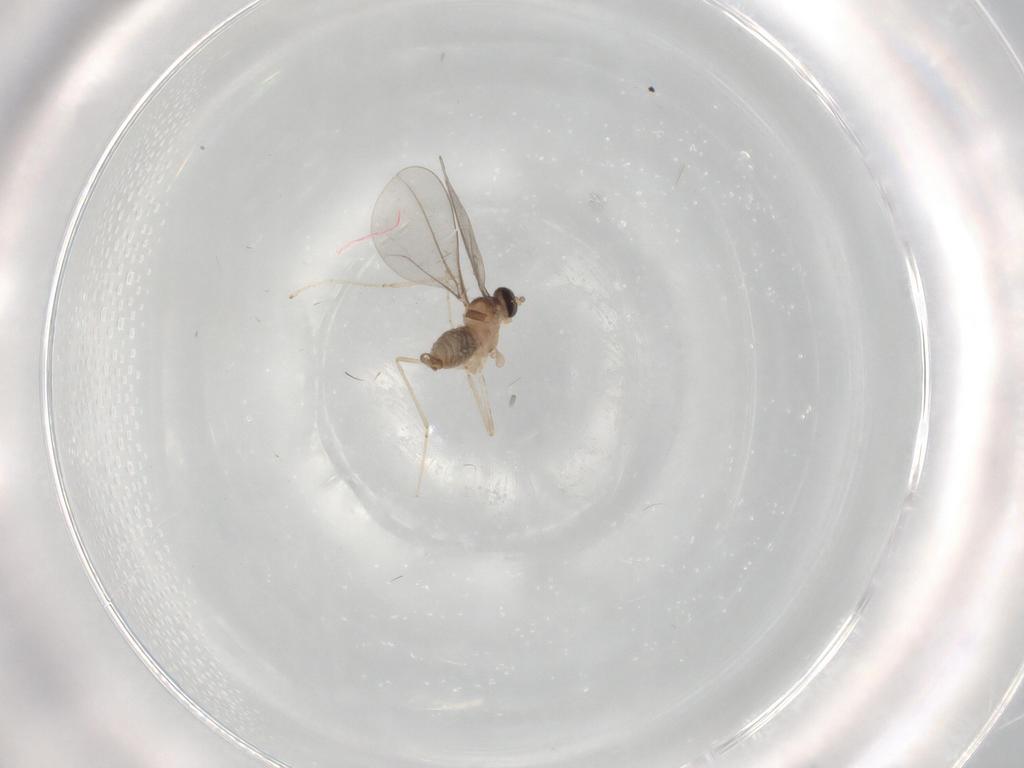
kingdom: Animalia
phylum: Arthropoda
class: Insecta
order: Diptera
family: Cecidomyiidae
